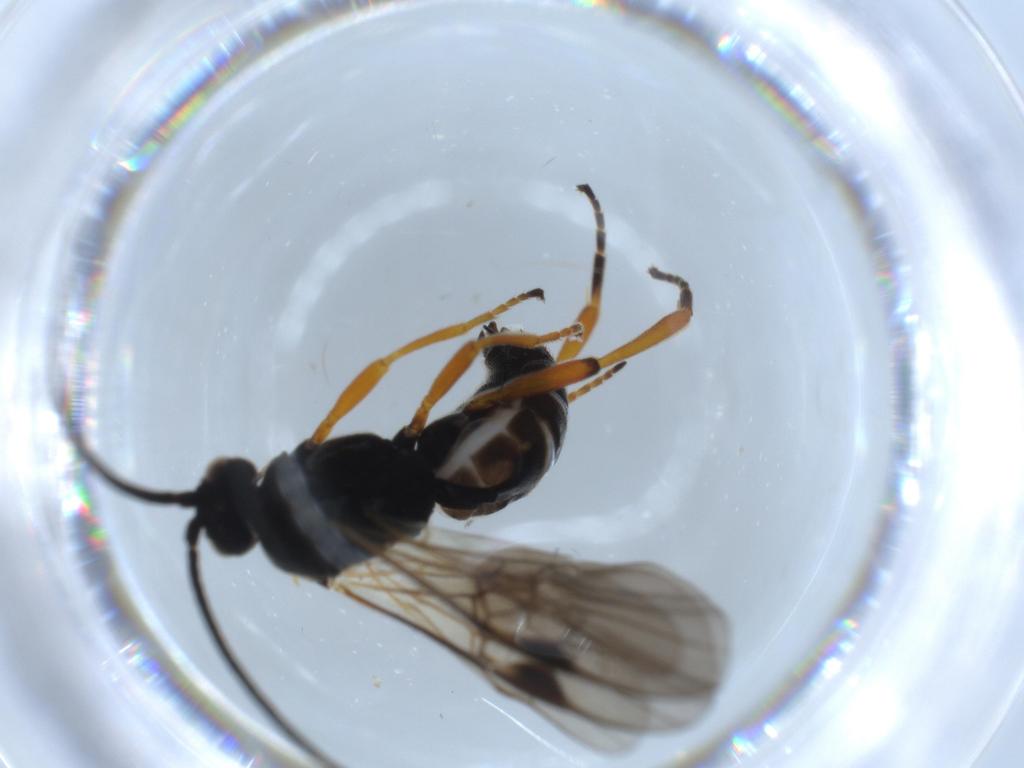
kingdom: Animalia
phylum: Arthropoda
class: Insecta
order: Hymenoptera
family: Braconidae
